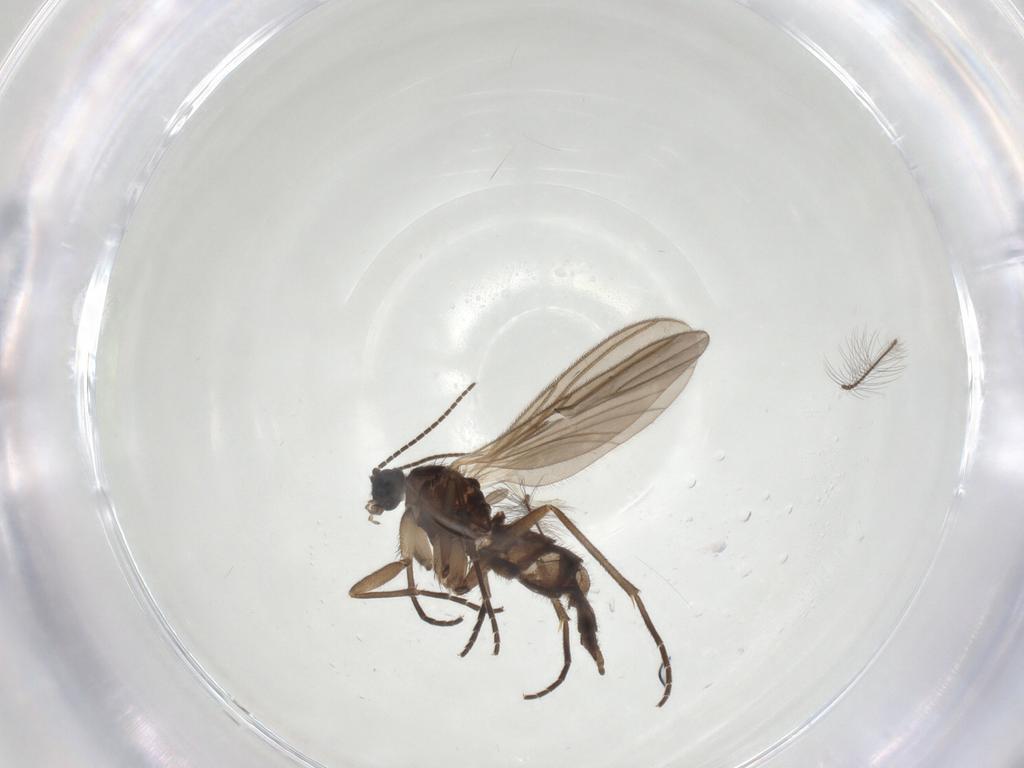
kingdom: Animalia
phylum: Arthropoda
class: Insecta
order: Diptera
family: Sciaridae
